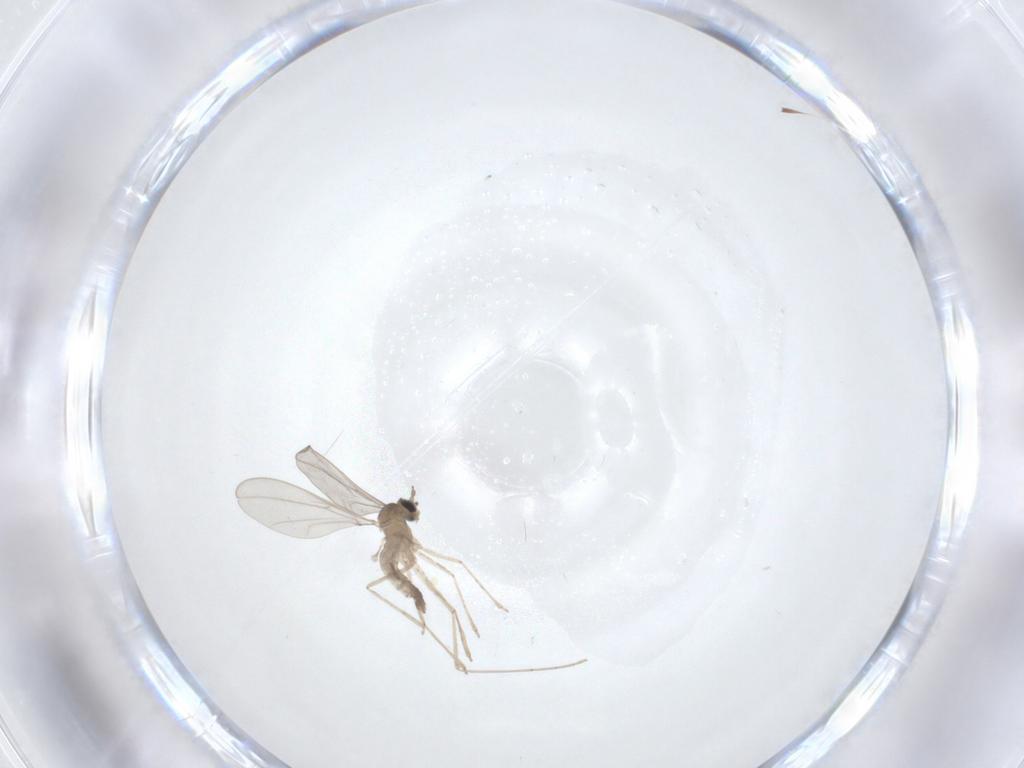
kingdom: Animalia
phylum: Arthropoda
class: Insecta
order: Diptera
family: Cecidomyiidae
